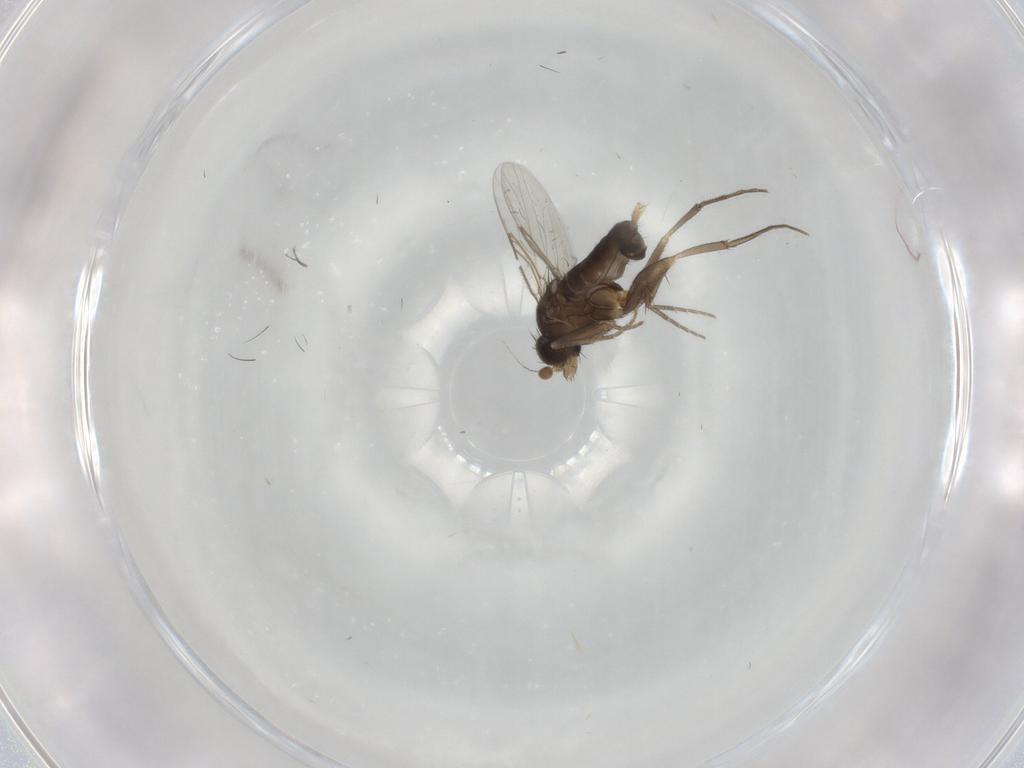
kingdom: Animalia
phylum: Arthropoda
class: Insecta
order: Diptera
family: Phoridae
